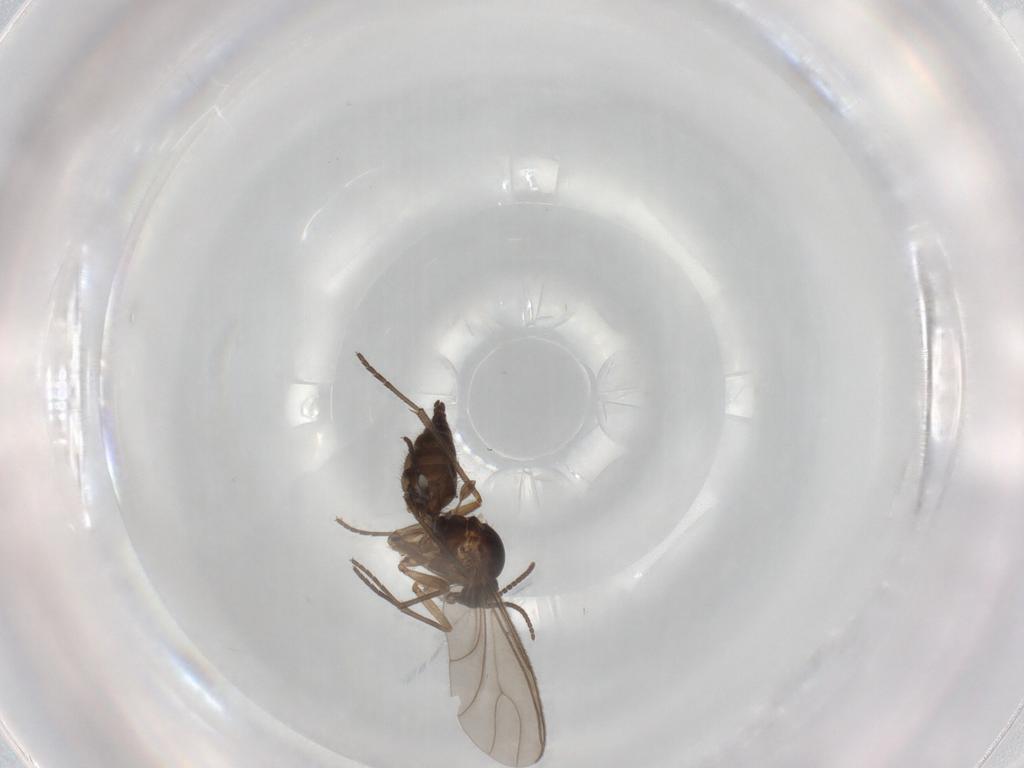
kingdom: Animalia
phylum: Arthropoda
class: Insecta
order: Diptera
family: Sciaridae
